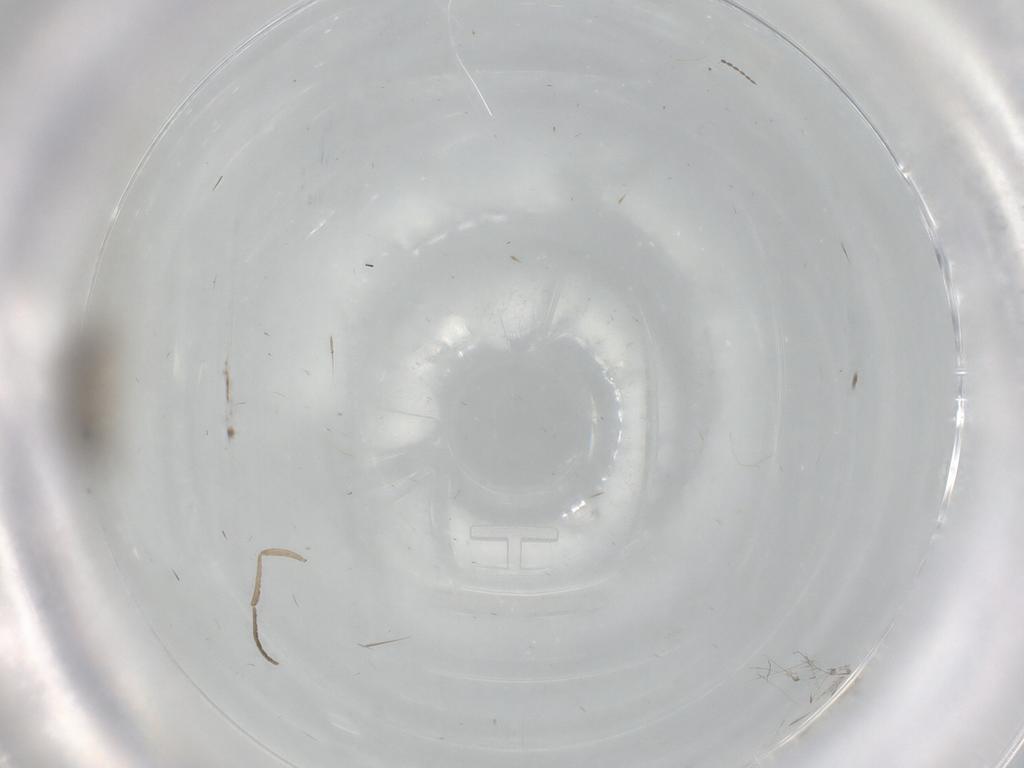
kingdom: Animalia
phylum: Arthropoda
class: Insecta
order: Diptera
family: Cecidomyiidae
